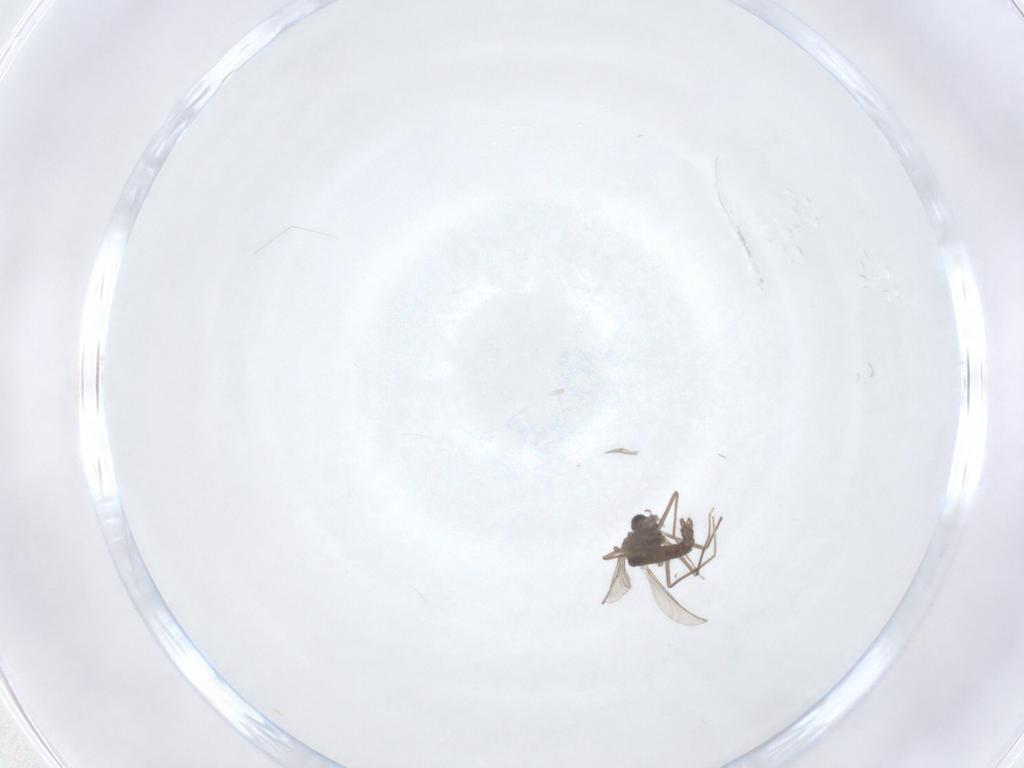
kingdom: Animalia
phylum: Arthropoda
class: Insecta
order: Diptera
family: Chironomidae
